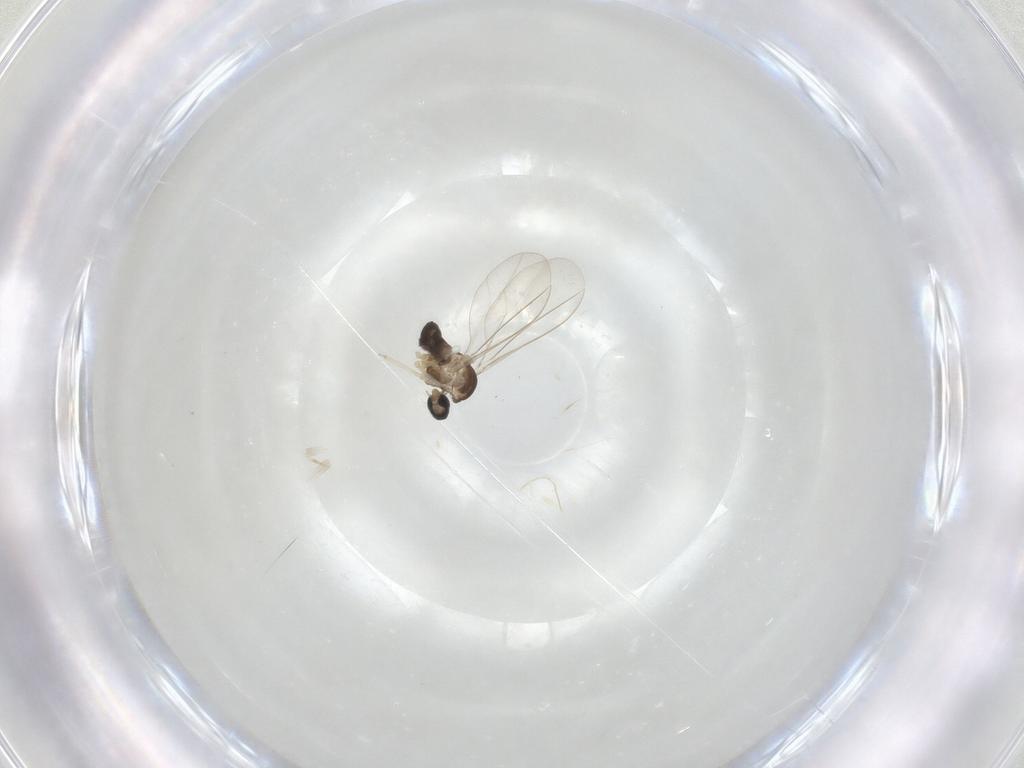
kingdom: Animalia
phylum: Arthropoda
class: Insecta
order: Diptera
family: Cecidomyiidae
